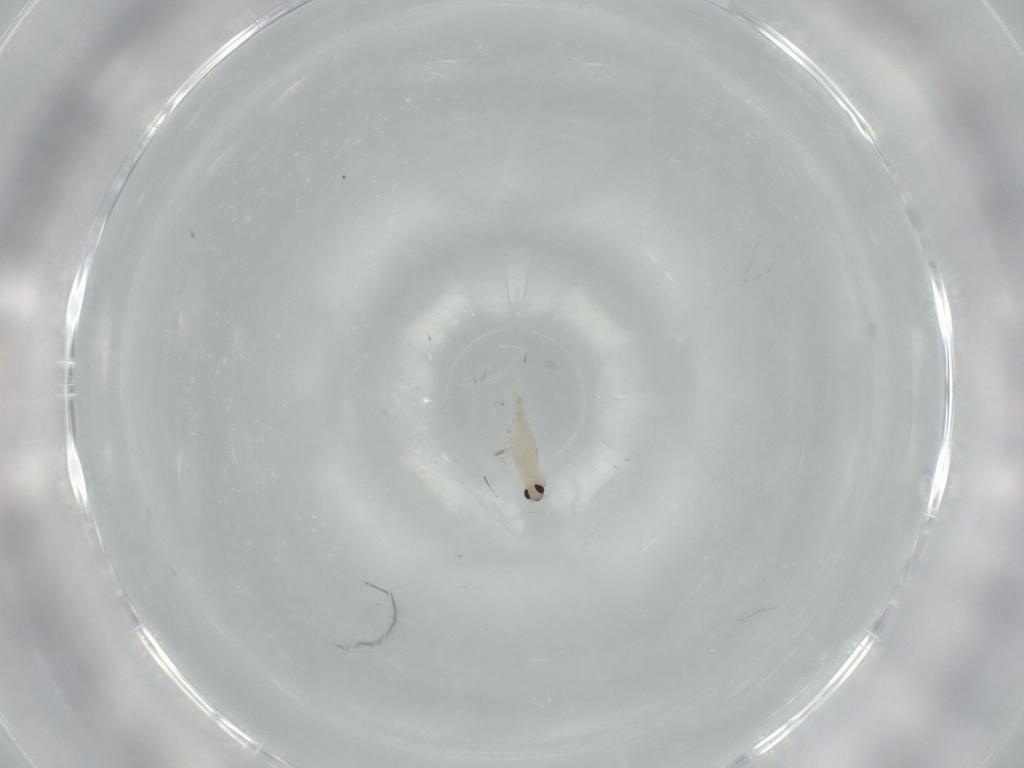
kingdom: Animalia
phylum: Arthropoda
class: Insecta
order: Diptera
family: Cecidomyiidae
